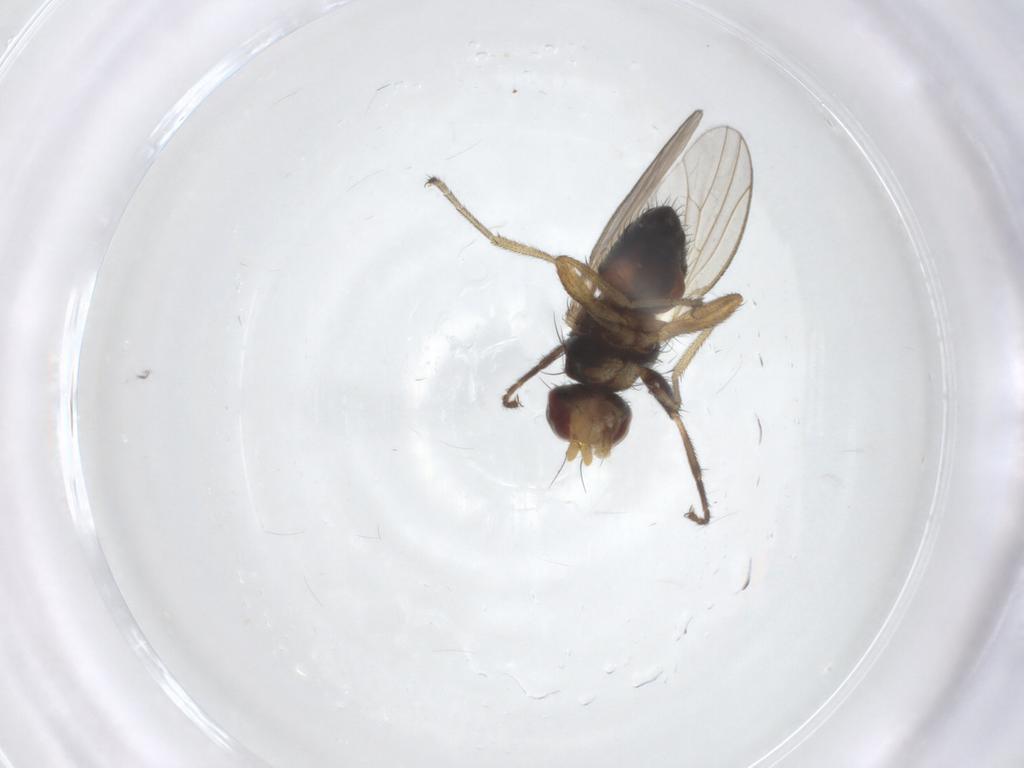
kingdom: Animalia
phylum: Arthropoda
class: Insecta
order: Diptera
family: Heleomyzidae
